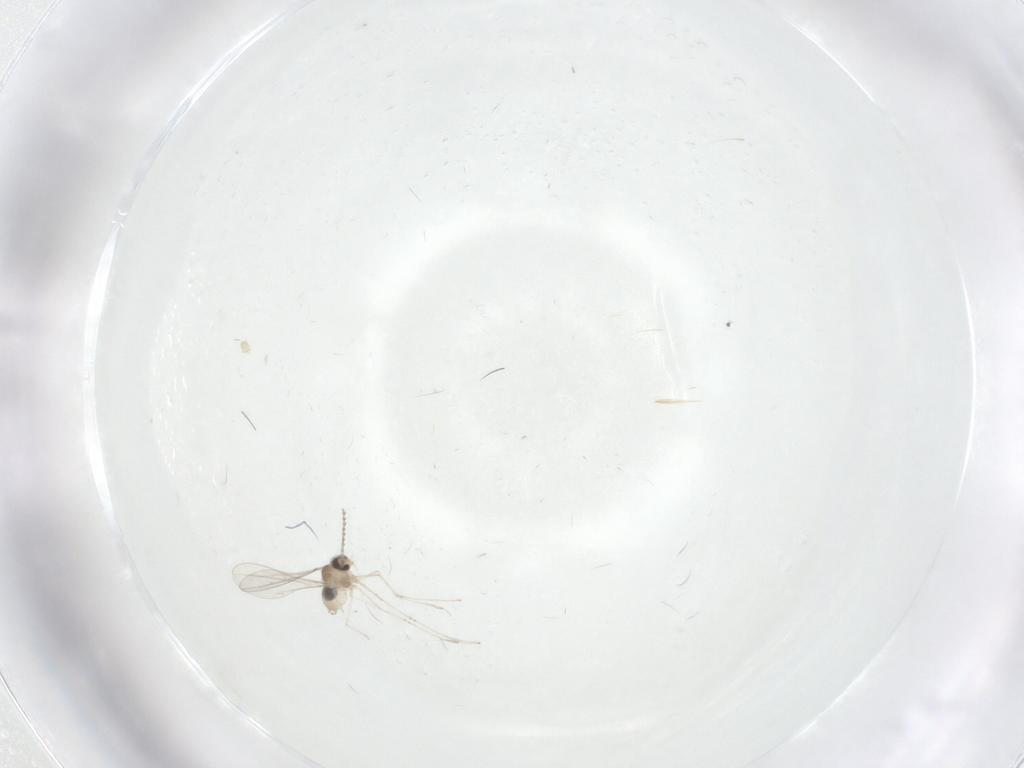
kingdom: Animalia
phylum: Arthropoda
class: Insecta
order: Diptera
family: Cecidomyiidae
